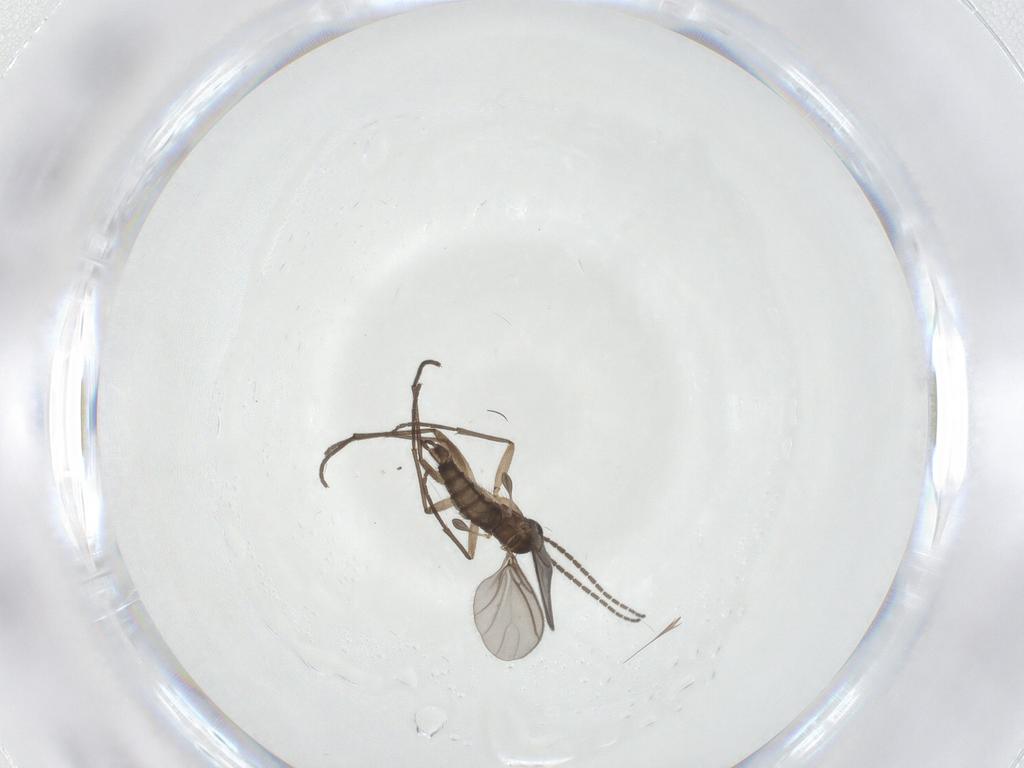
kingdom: Animalia
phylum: Arthropoda
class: Insecta
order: Diptera
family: Sciaridae
